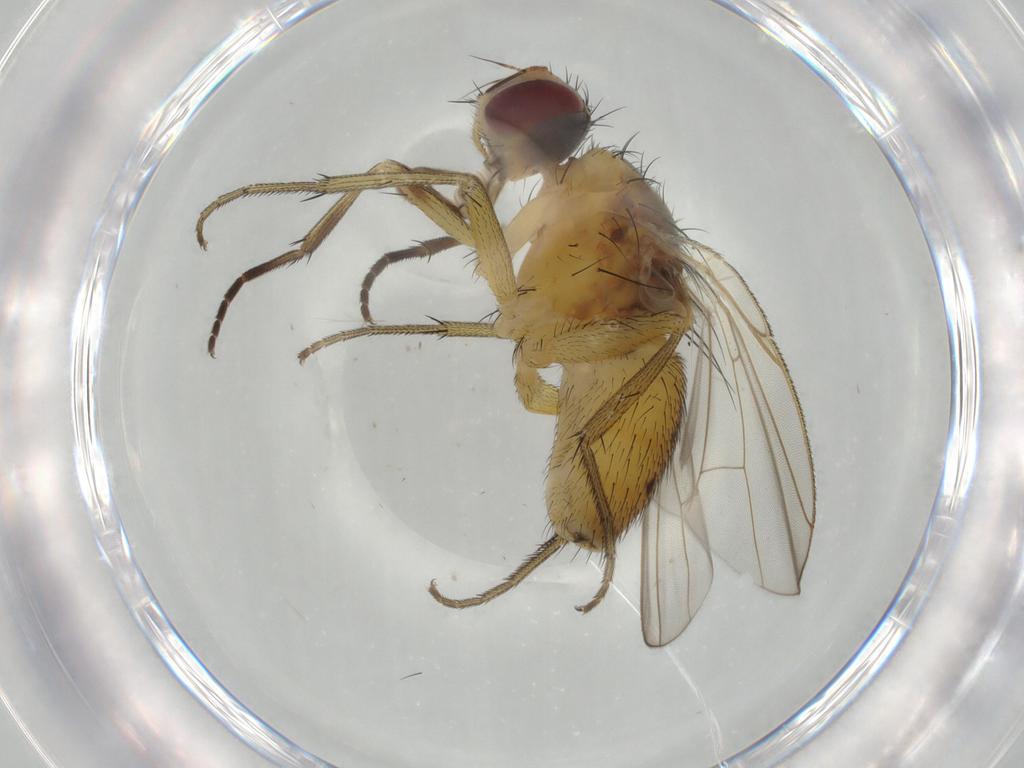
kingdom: Animalia
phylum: Arthropoda
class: Insecta
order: Diptera
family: Muscidae
